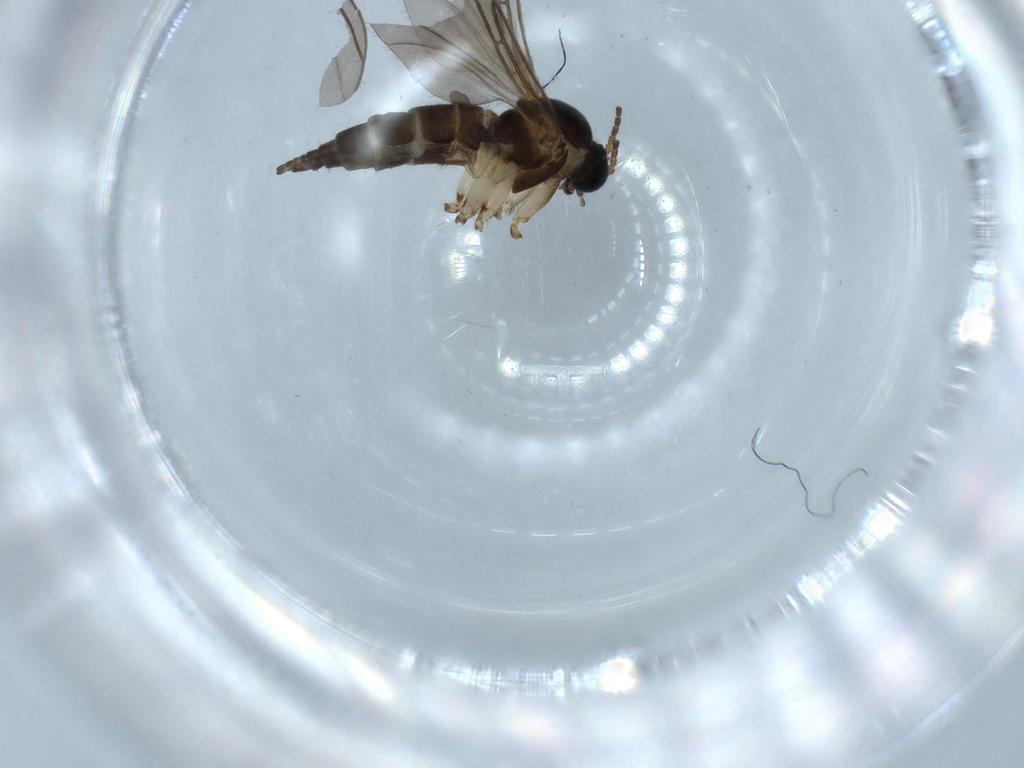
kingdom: Animalia
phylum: Arthropoda
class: Insecta
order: Diptera
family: Sciaridae
